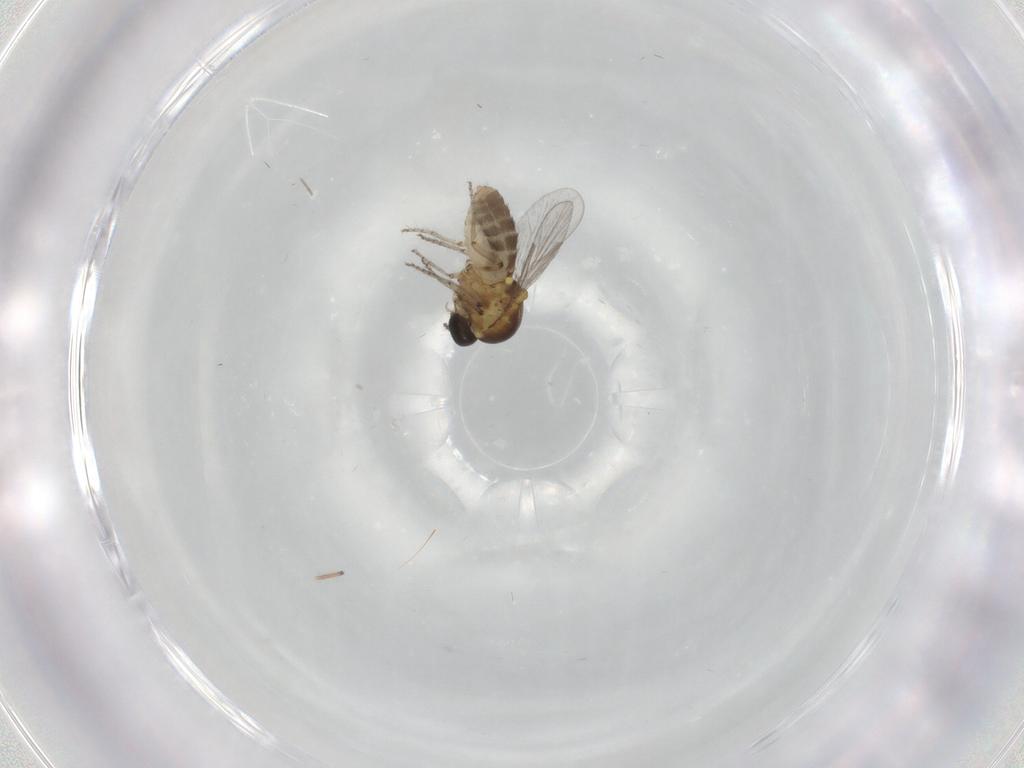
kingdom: Animalia
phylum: Arthropoda
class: Insecta
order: Diptera
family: Ceratopogonidae
